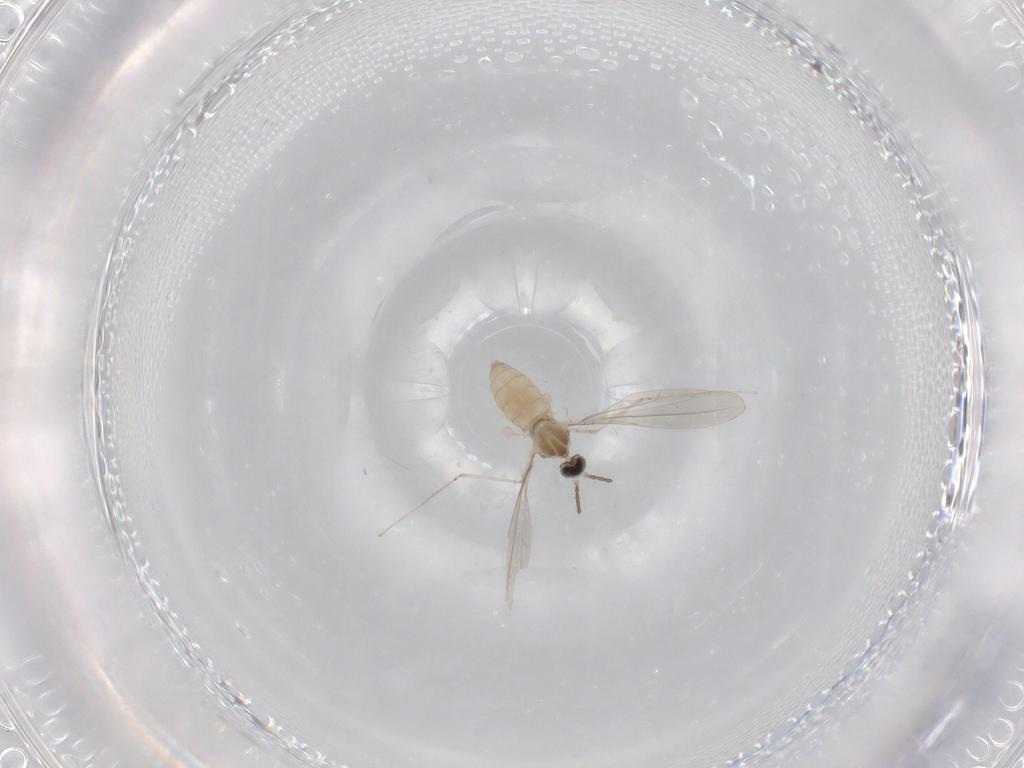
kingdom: Animalia
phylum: Arthropoda
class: Insecta
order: Diptera
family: Cecidomyiidae
